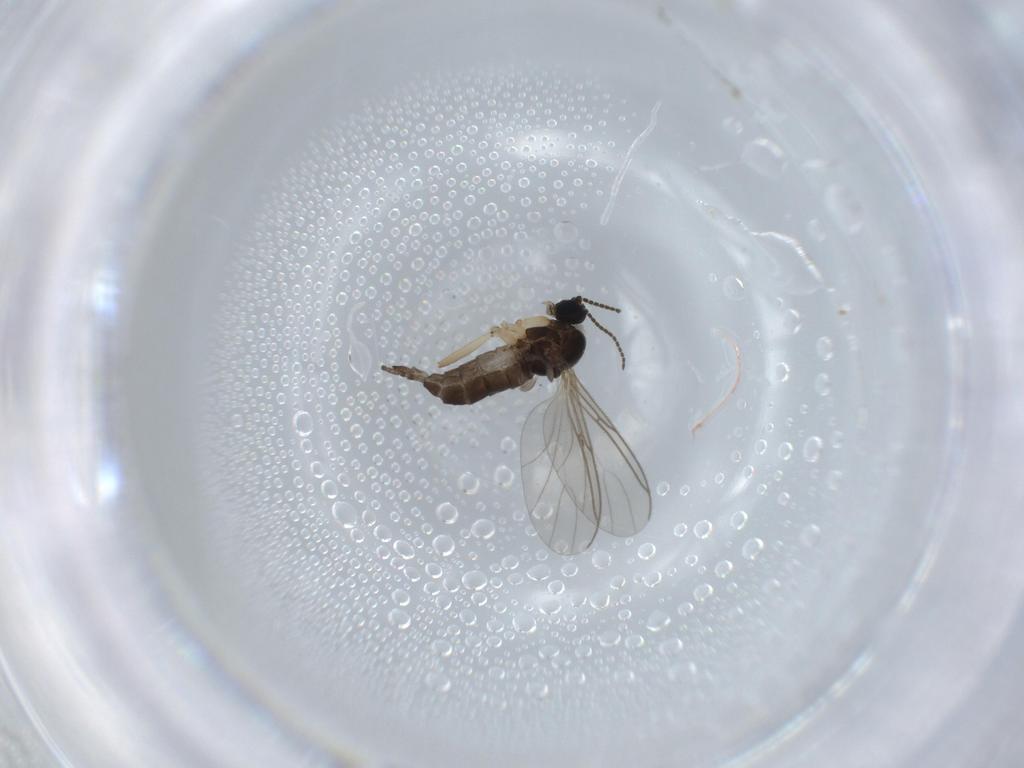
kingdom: Animalia
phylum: Arthropoda
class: Insecta
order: Diptera
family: Sciaridae
